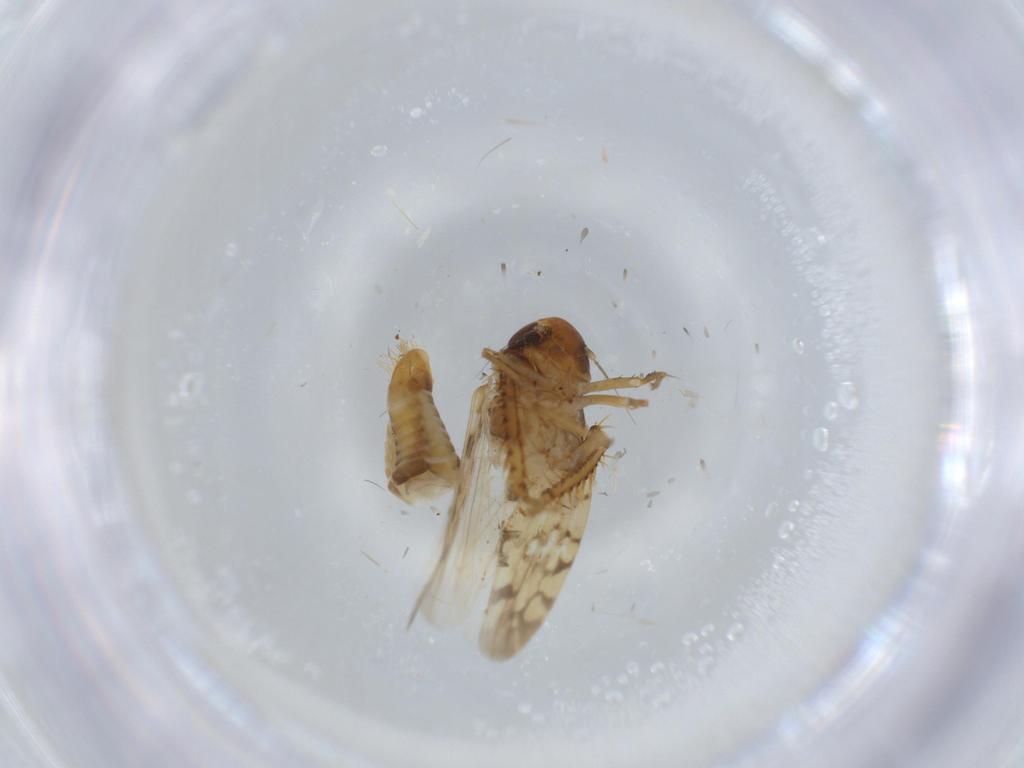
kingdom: Animalia
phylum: Arthropoda
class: Insecta
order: Hemiptera
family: Cicadellidae
